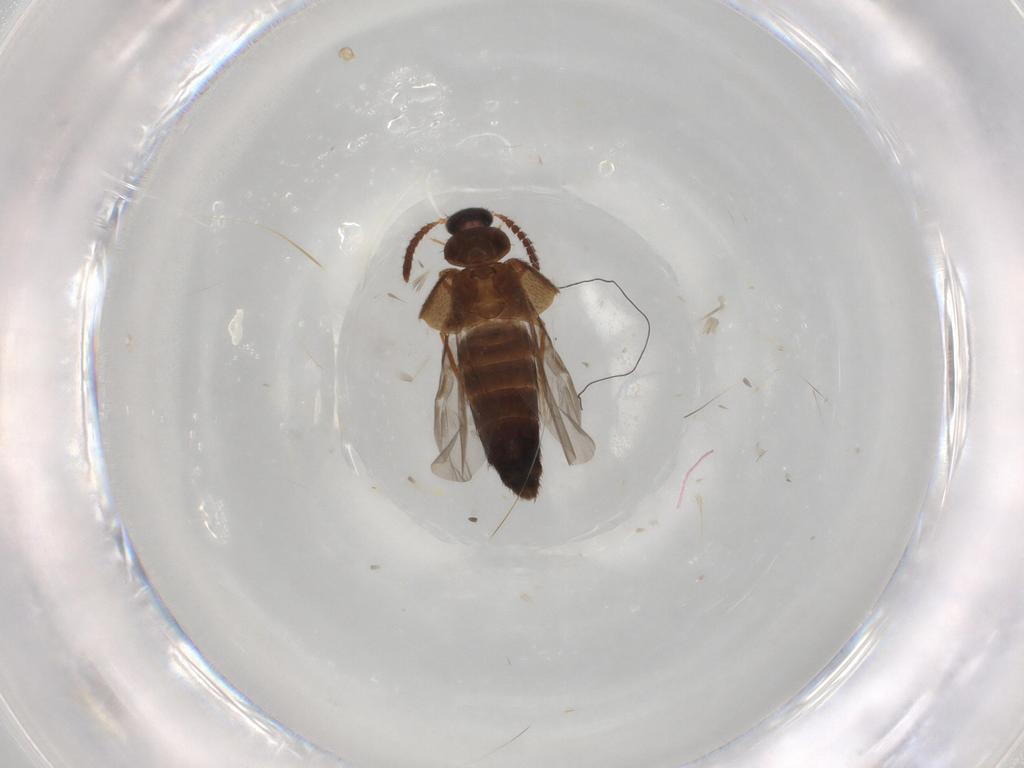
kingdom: Animalia
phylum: Arthropoda
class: Insecta
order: Coleoptera
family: Staphylinidae
